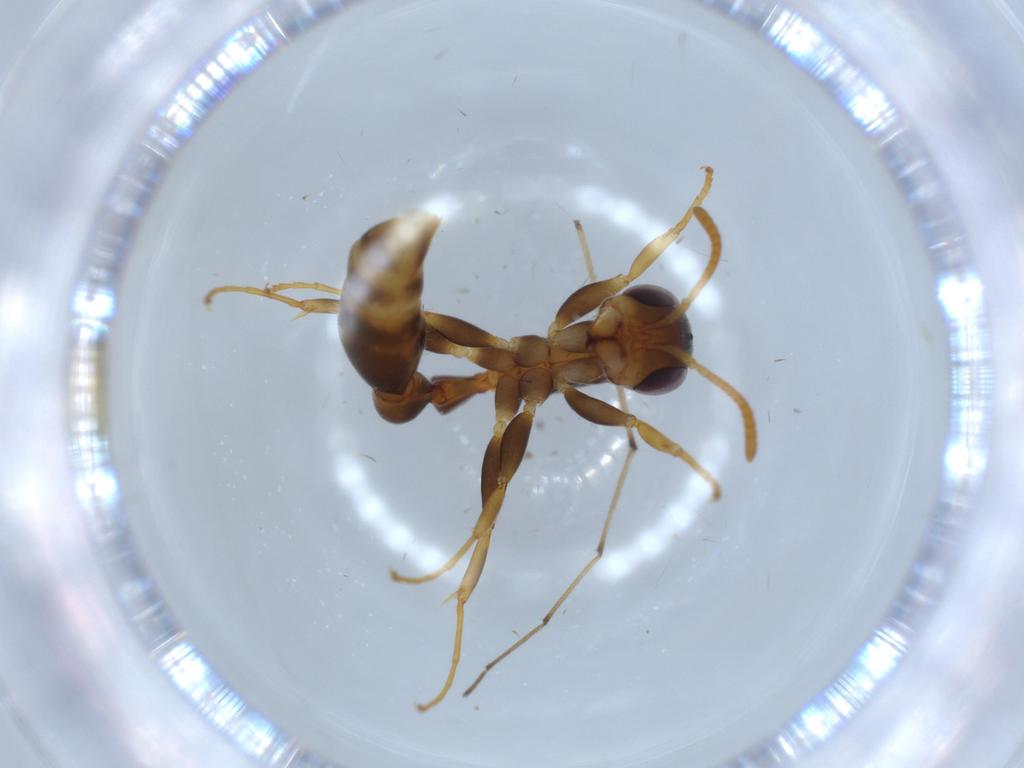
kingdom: Animalia
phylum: Arthropoda
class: Insecta
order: Hymenoptera
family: Formicidae
